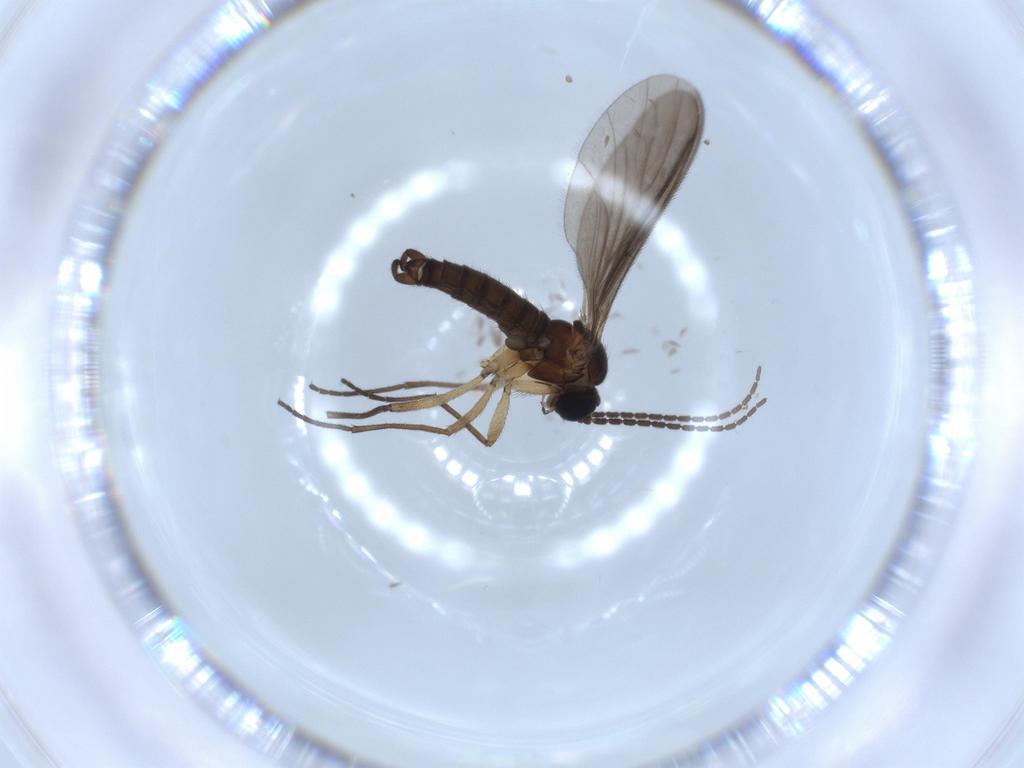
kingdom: Animalia
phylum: Arthropoda
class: Insecta
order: Diptera
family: Sciaridae
